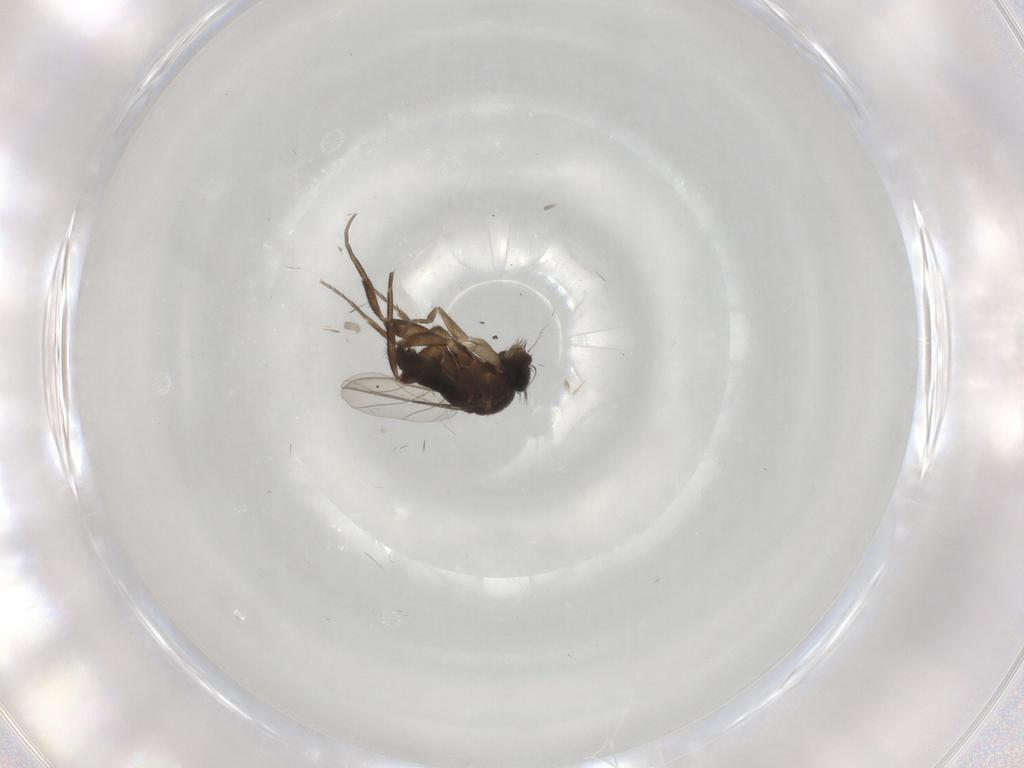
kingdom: Animalia
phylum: Arthropoda
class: Insecta
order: Diptera
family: Phoridae
